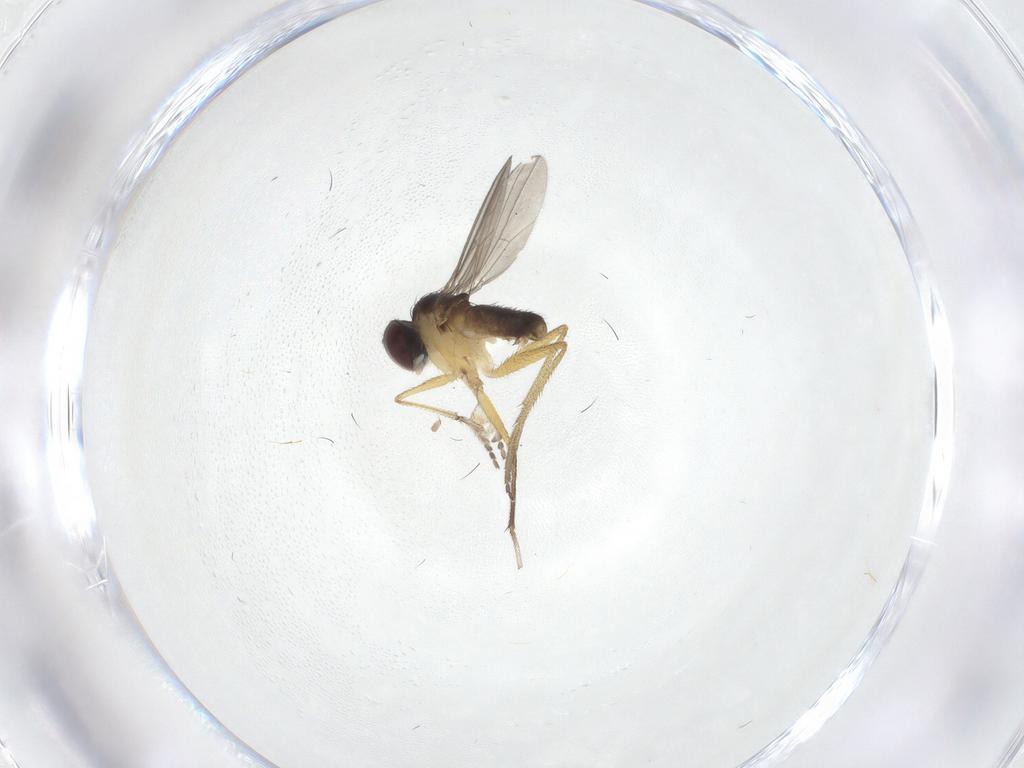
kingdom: Animalia
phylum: Arthropoda
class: Insecta
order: Diptera
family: Dolichopodidae
